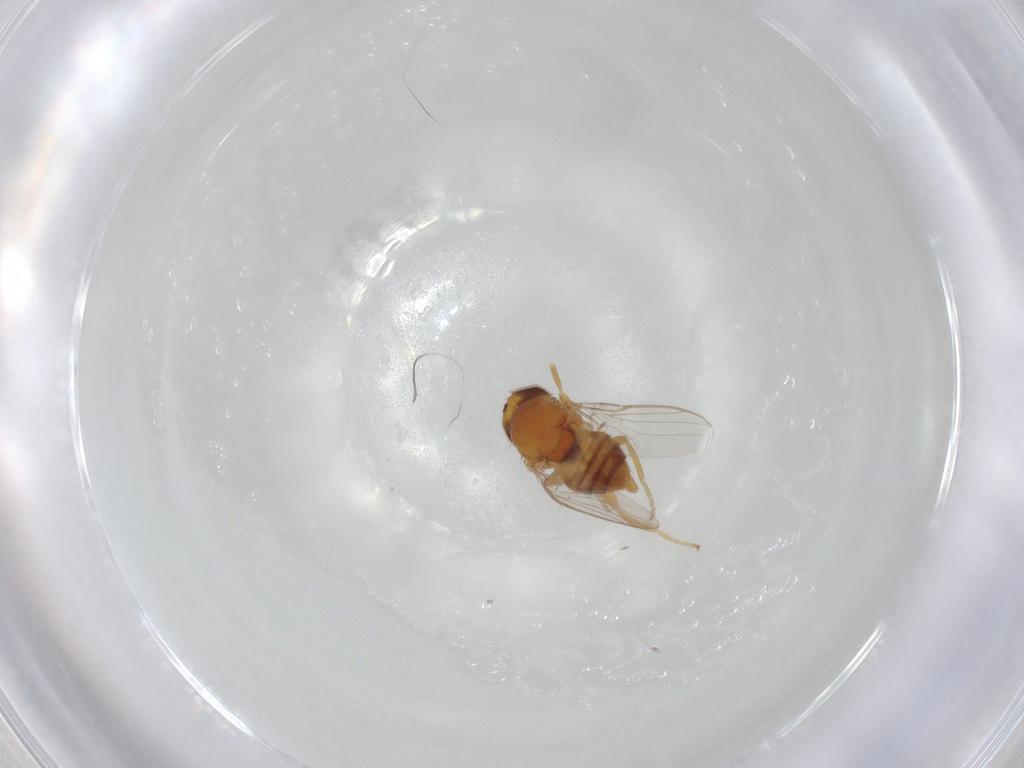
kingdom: Animalia
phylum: Arthropoda
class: Insecta
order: Diptera
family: Chloropidae
